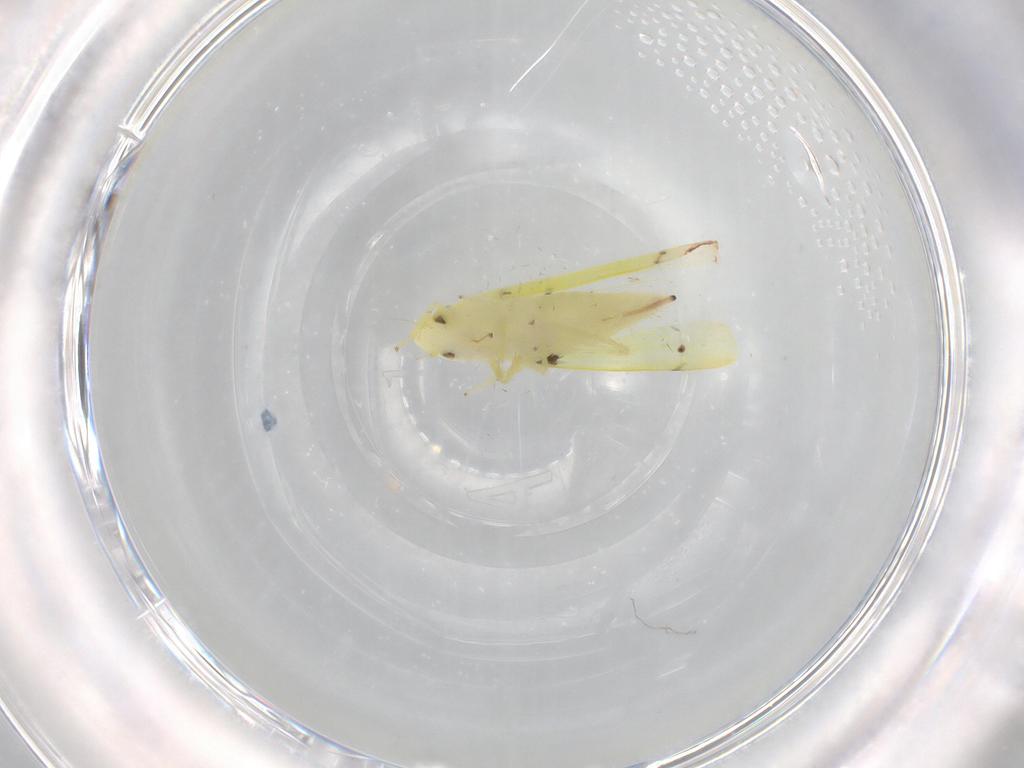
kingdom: Animalia
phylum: Arthropoda
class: Insecta
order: Hemiptera
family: Cicadellidae
